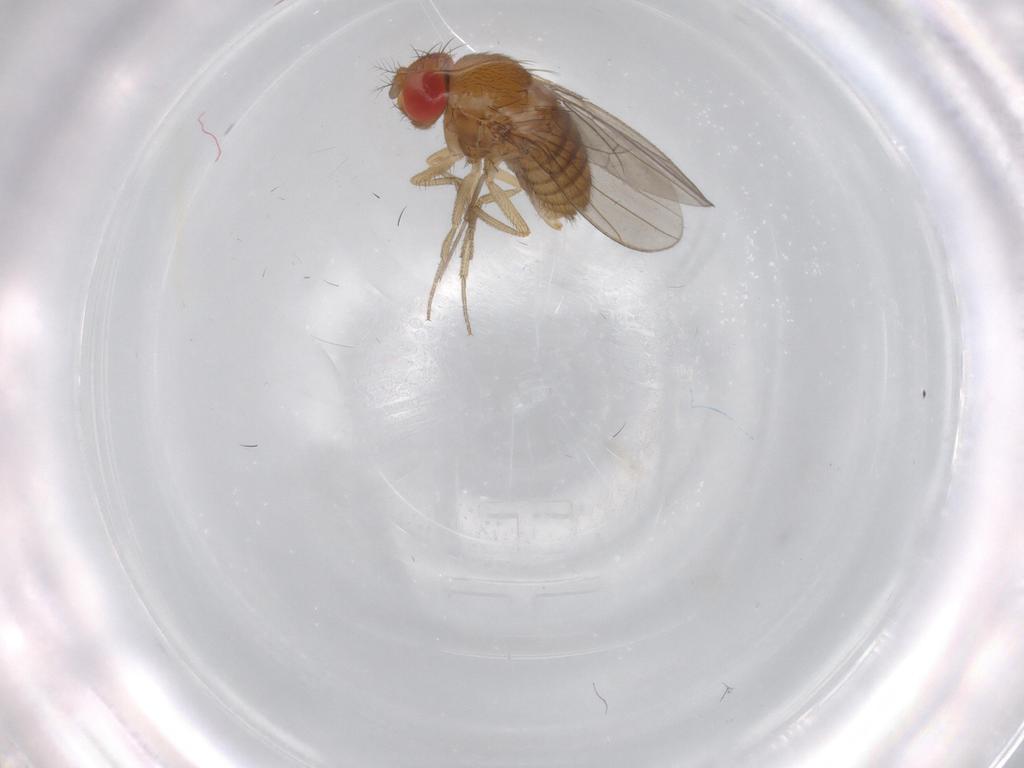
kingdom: Animalia
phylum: Arthropoda
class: Insecta
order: Diptera
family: Drosophilidae
